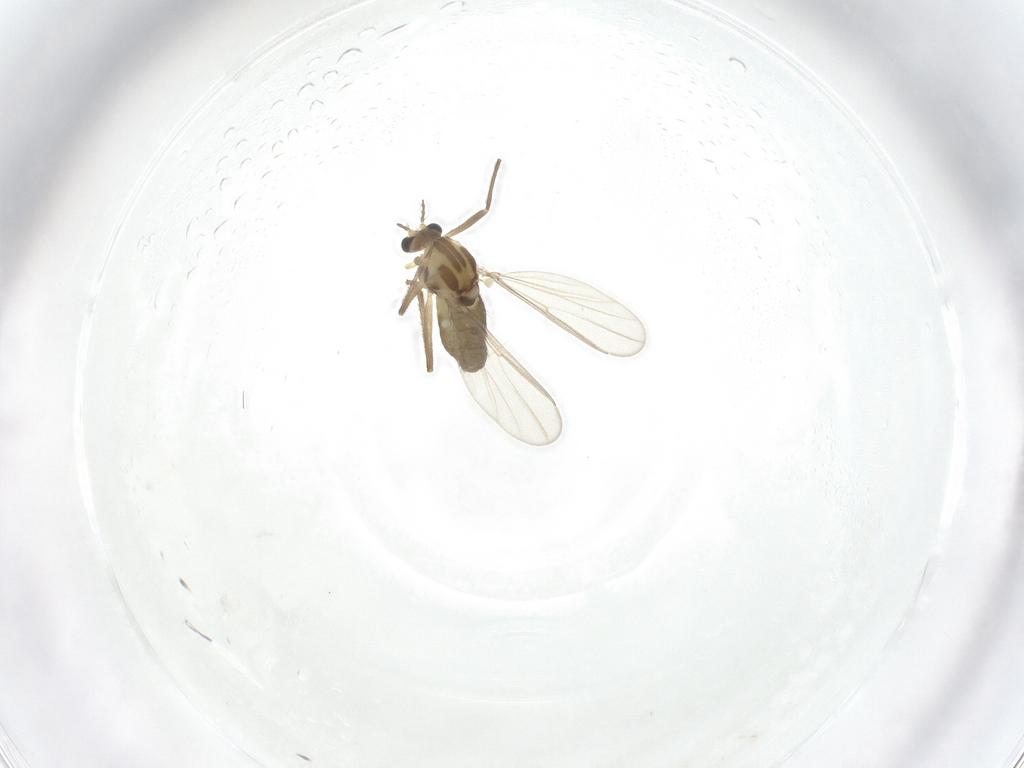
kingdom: Animalia
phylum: Arthropoda
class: Insecta
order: Diptera
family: Chironomidae
